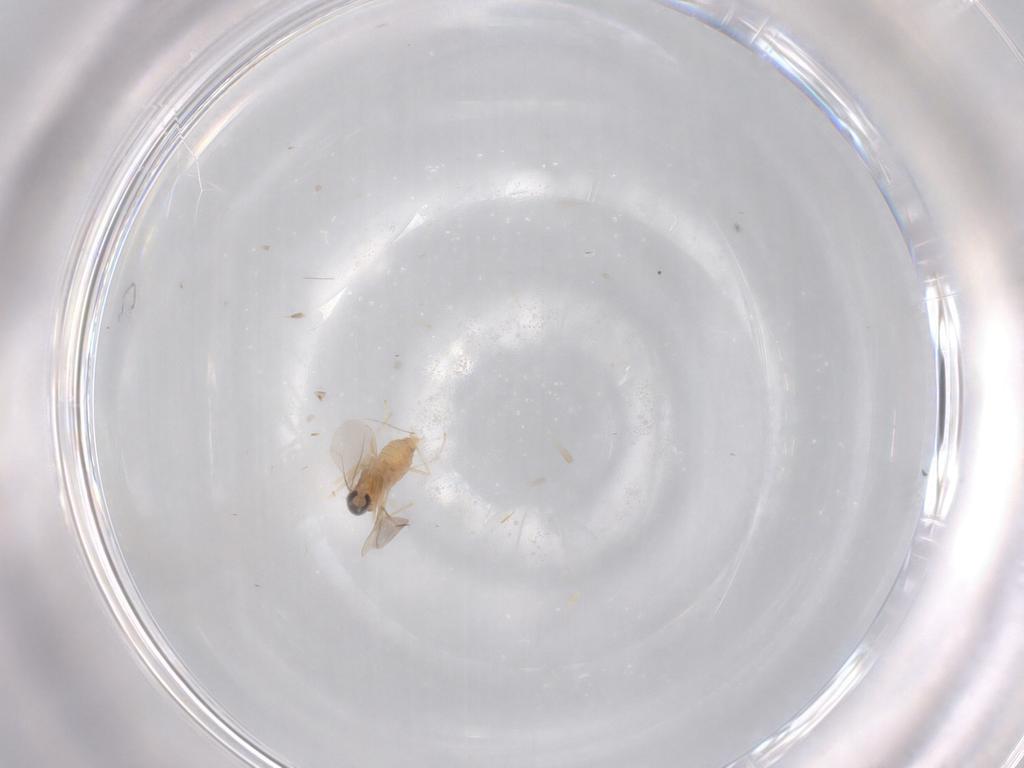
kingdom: Animalia
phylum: Arthropoda
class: Insecta
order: Diptera
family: Cecidomyiidae
